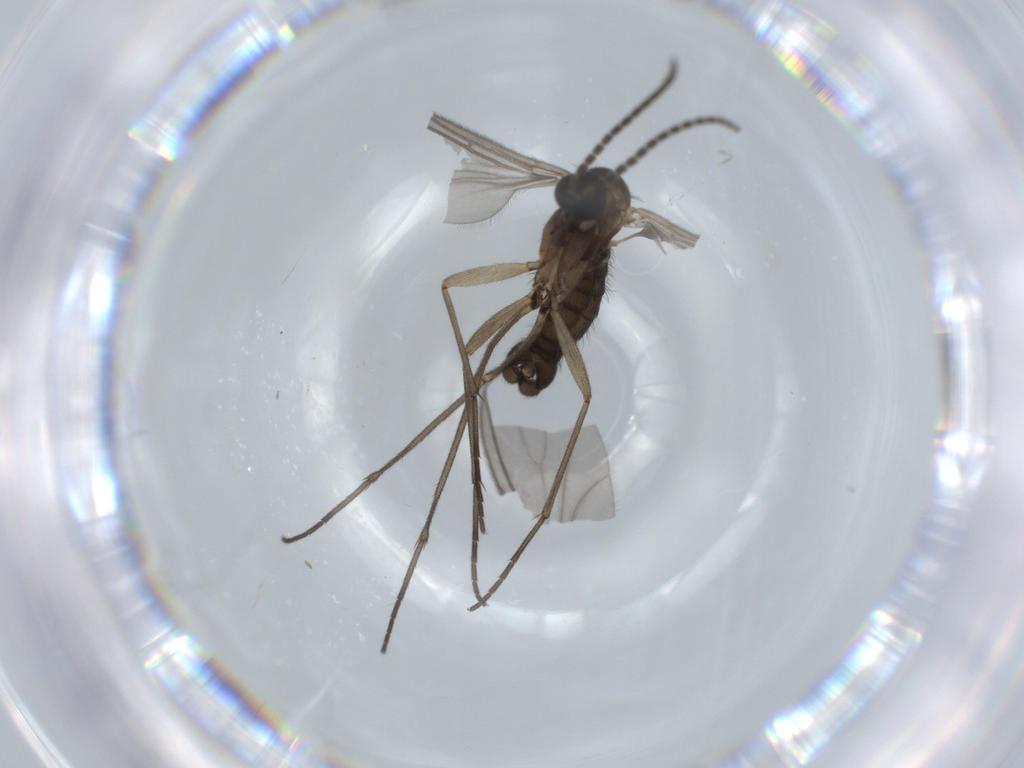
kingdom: Animalia
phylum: Arthropoda
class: Insecta
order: Diptera
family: Sciaridae
